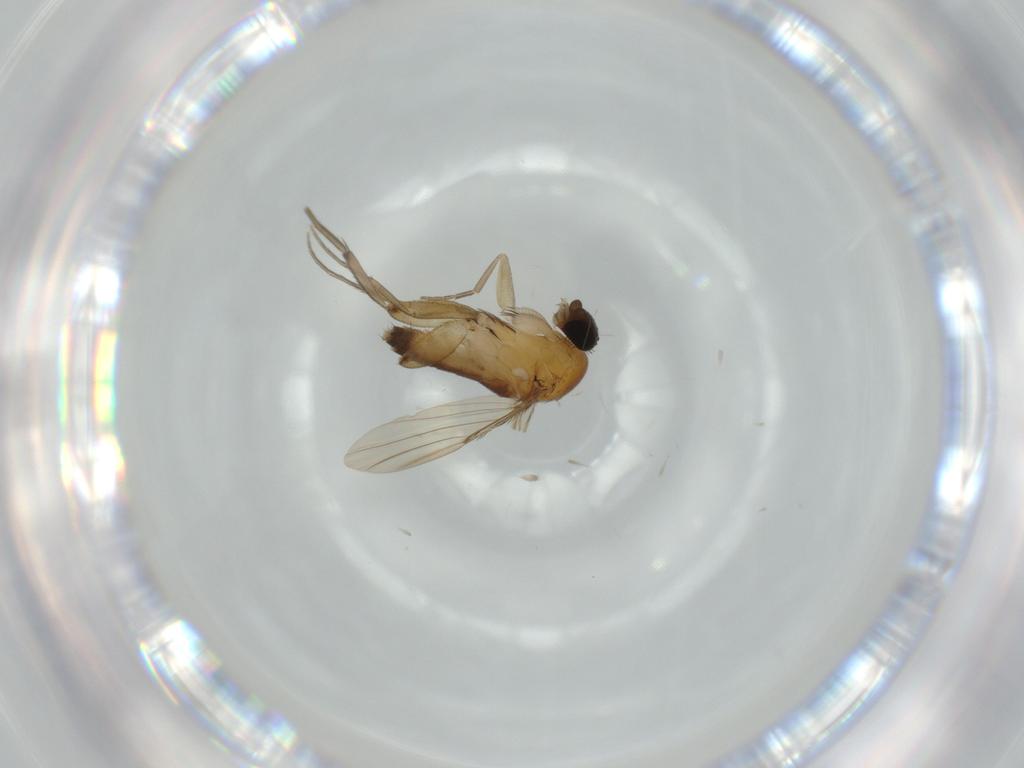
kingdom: Animalia
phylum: Arthropoda
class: Insecta
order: Diptera
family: Phoridae
